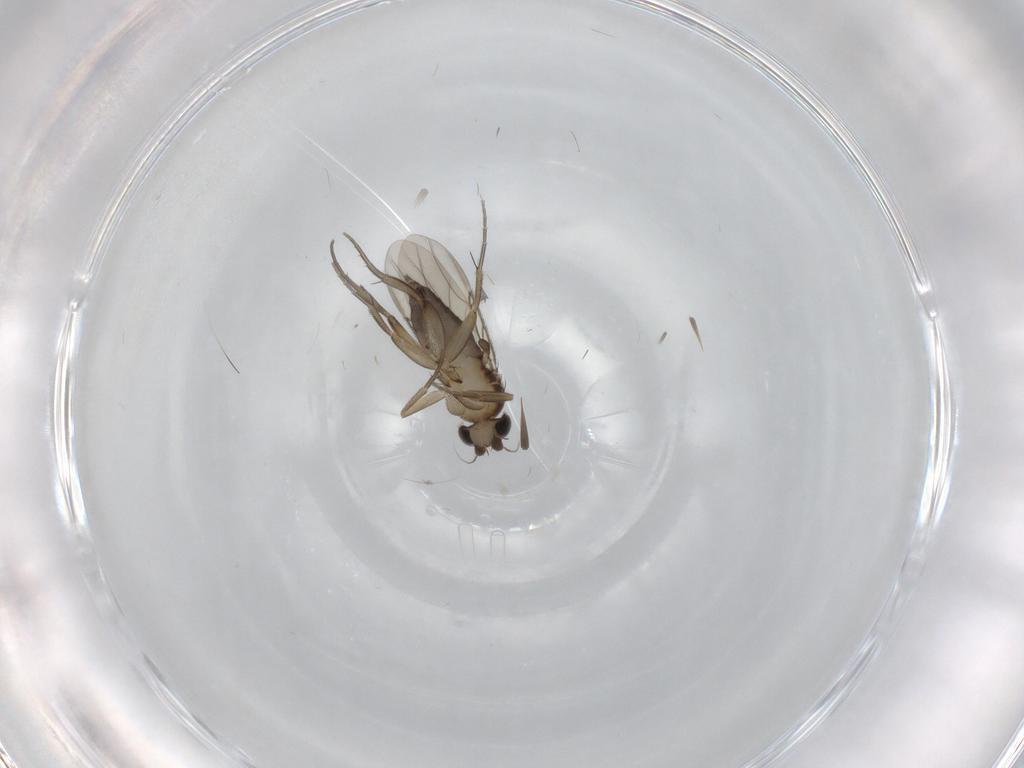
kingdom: Animalia
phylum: Arthropoda
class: Insecta
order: Diptera
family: Phoridae
